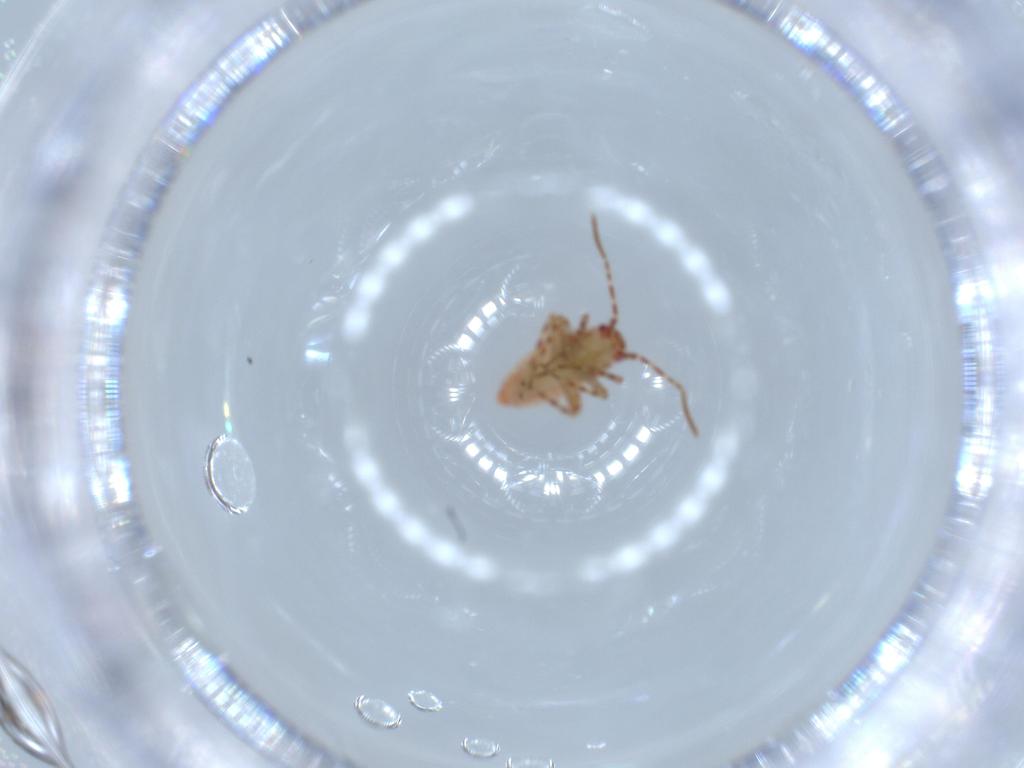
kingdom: Animalia
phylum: Arthropoda
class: Insecta
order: Hemiptera
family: Miridae
